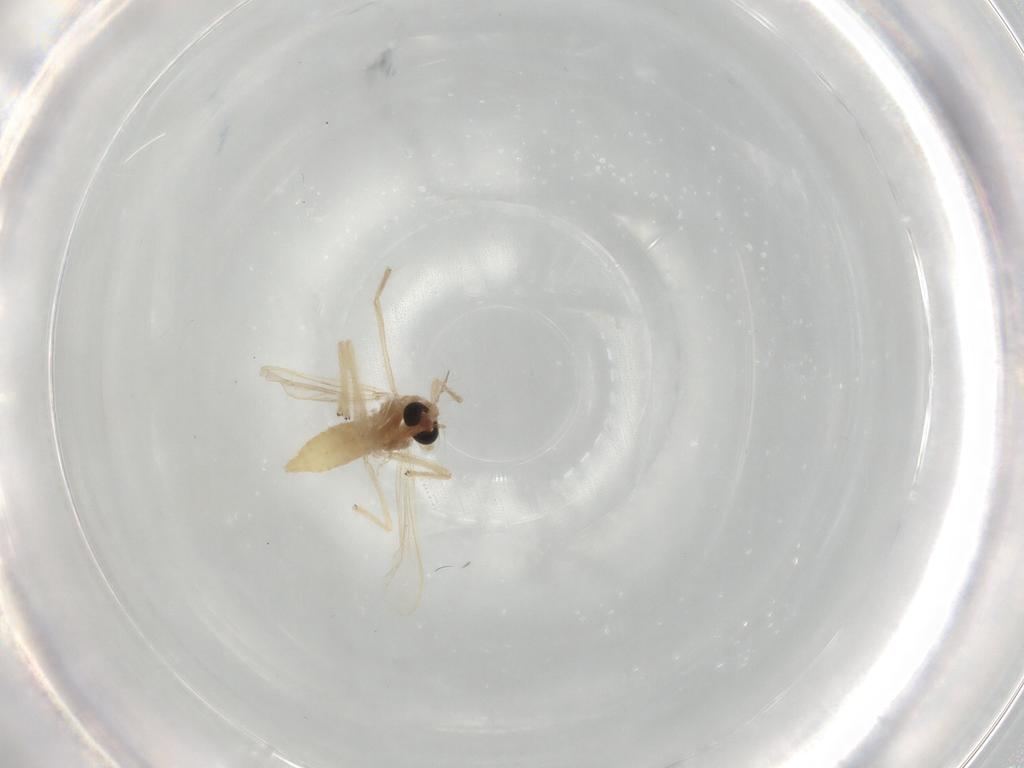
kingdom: Animalia
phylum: Arthropoda
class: Insecta
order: Diptera
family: Chironomidae
